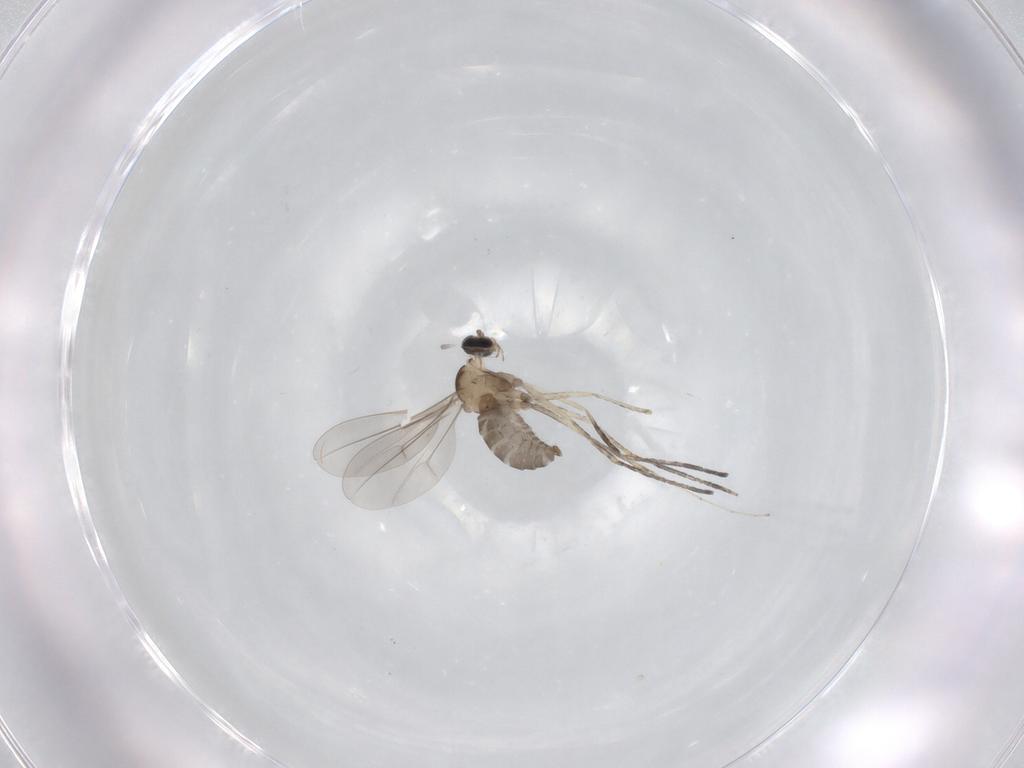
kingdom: Animalia
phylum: Arthropoda
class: Insecta
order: Diptera
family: Cecidomyiidae
